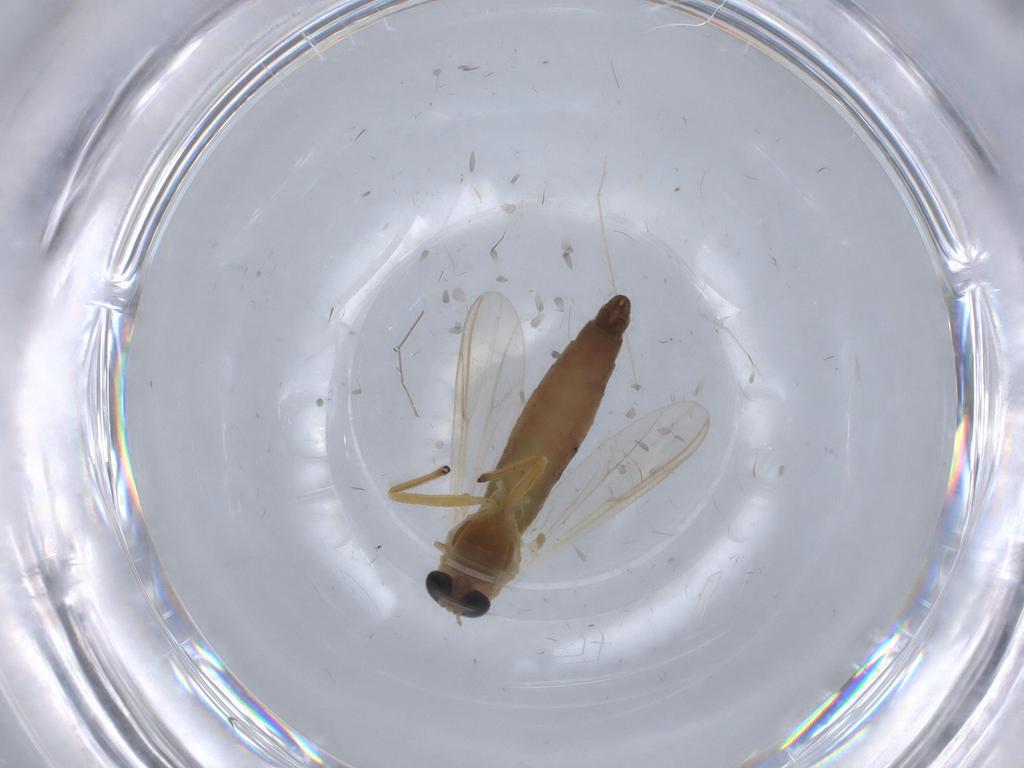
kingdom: Animalia
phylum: Arthropoda
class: Insecta
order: Diptera
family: Chironomidae
